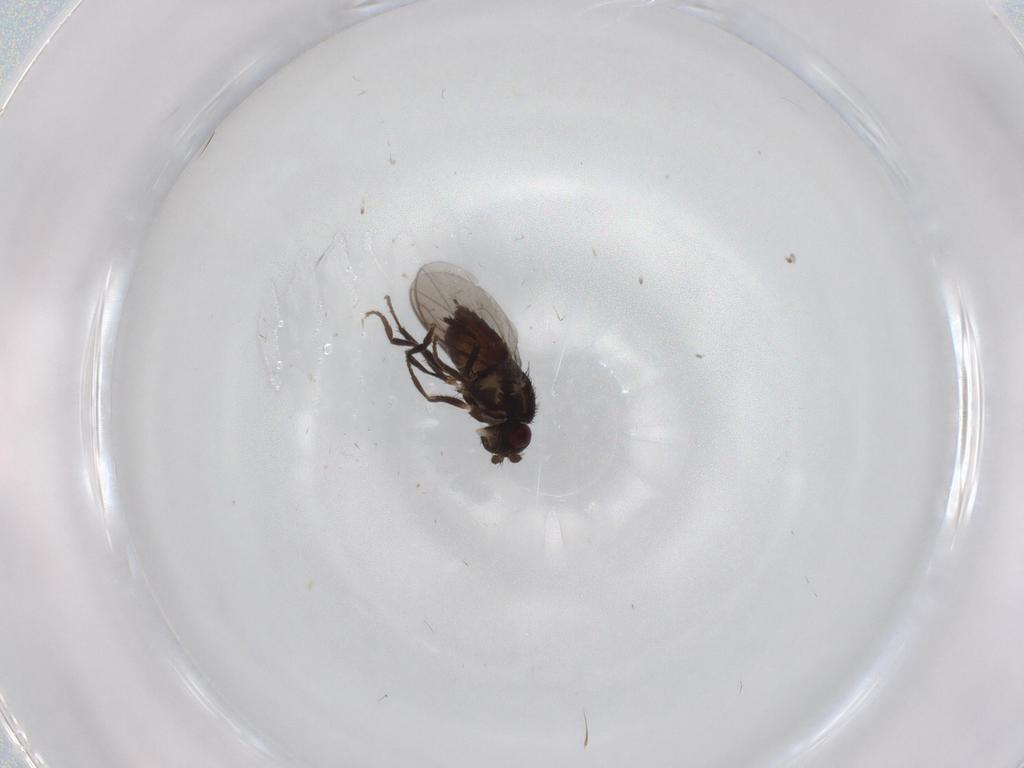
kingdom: Animalia
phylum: Arthropoda
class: Insecta
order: Diptera
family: Sphaeroceridae
